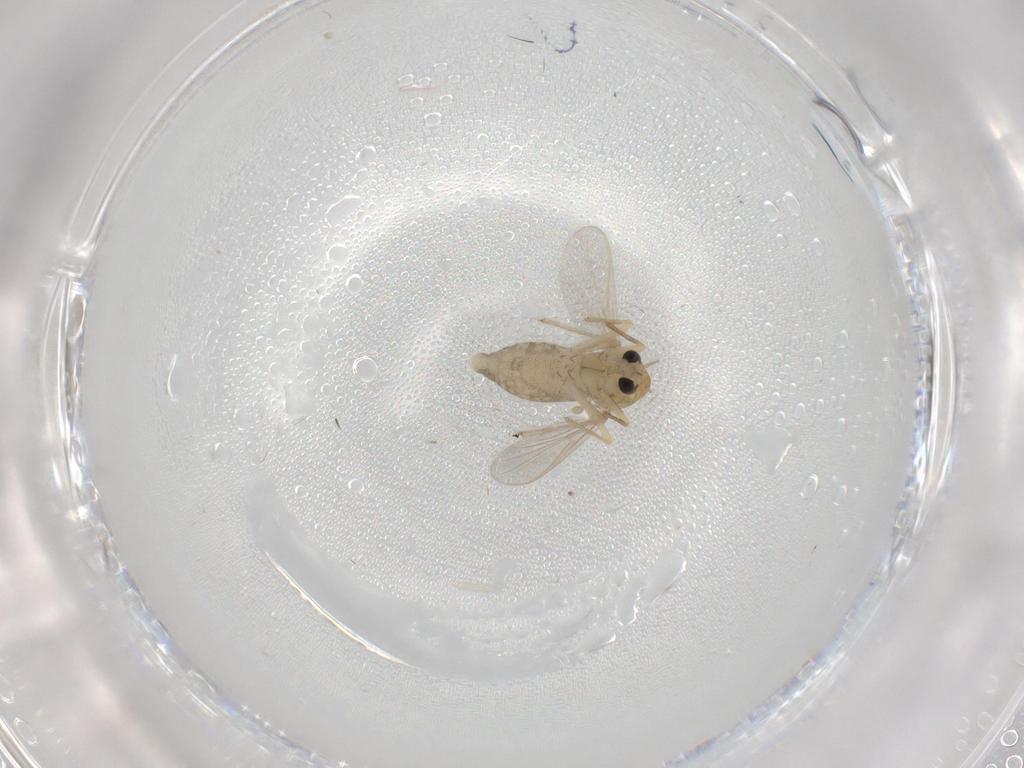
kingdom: Animalia
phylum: Arthropoda
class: Insecta
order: Diptera
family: Chironomidae
